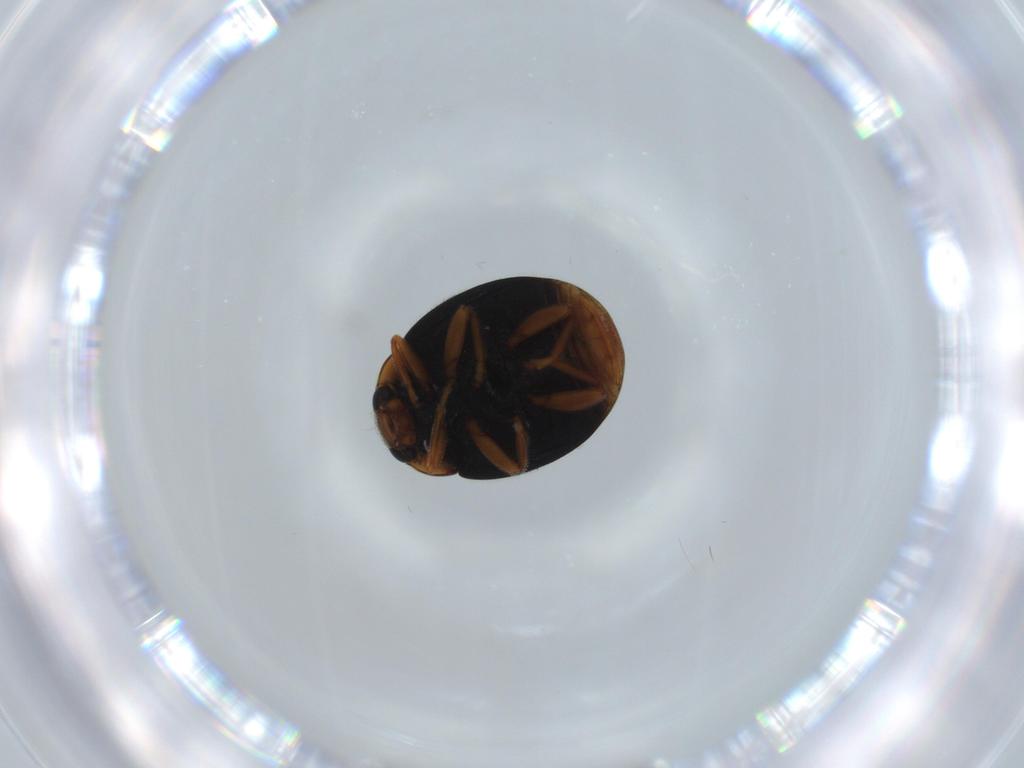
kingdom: Animalia
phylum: Arthropoda
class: Insecta
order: Coleoptera
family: Coccinellidae
